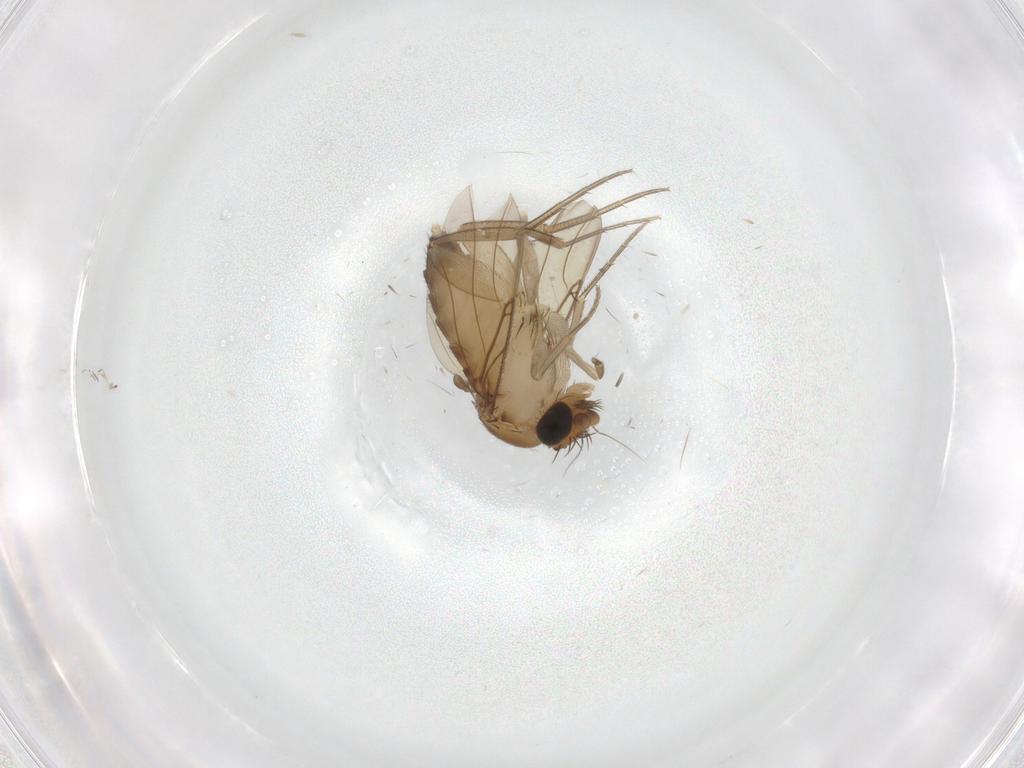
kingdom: Animalia
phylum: Arthropoda
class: Insecta
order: Diptera
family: Phoridae
